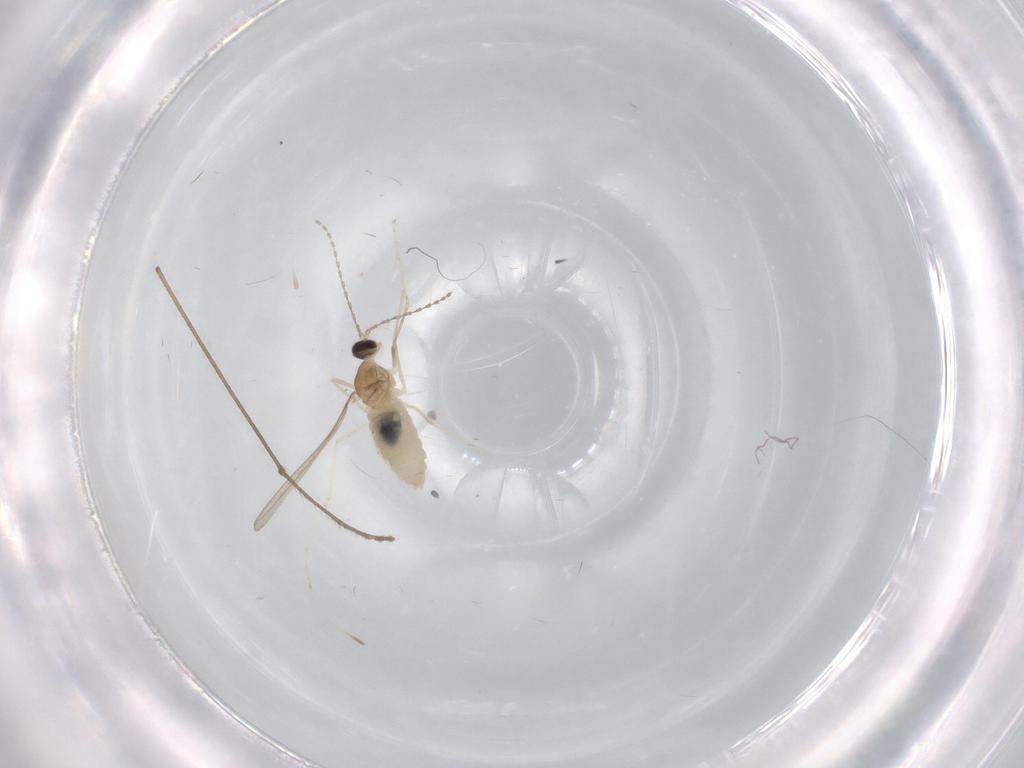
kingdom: Animalia
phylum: Arthropoda
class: Insecta
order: Diptera
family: Cecidomyiidae
